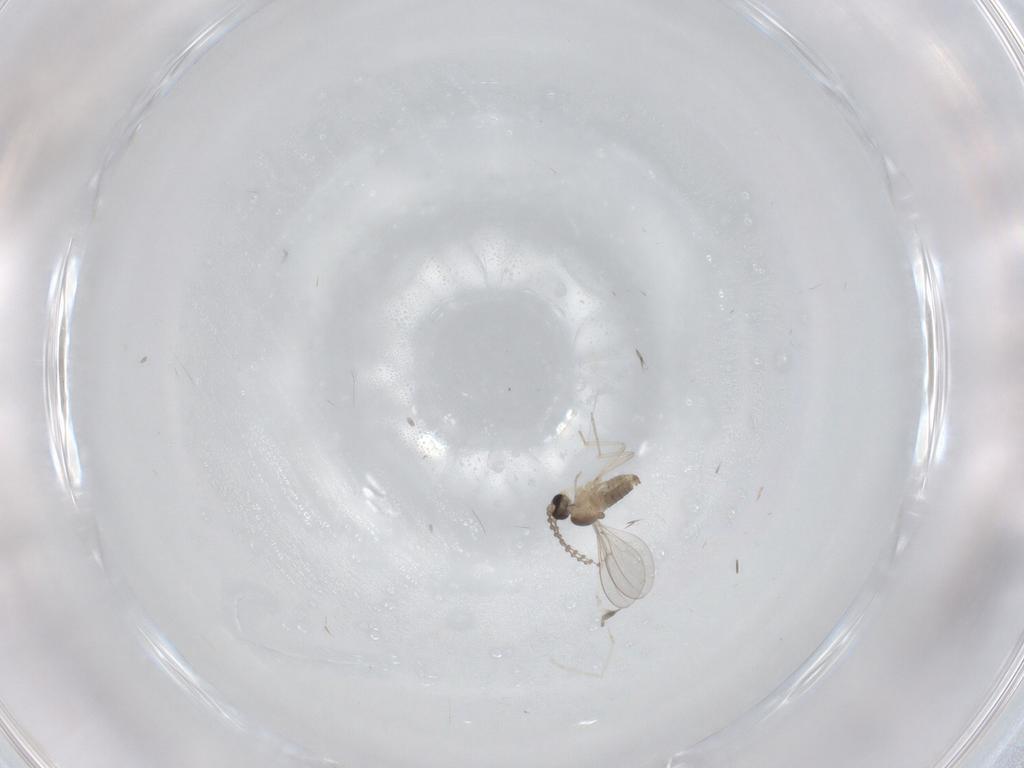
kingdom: Animalia
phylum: Arthropoda
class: Insecta
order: Diptera
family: Cecidomyiidae
